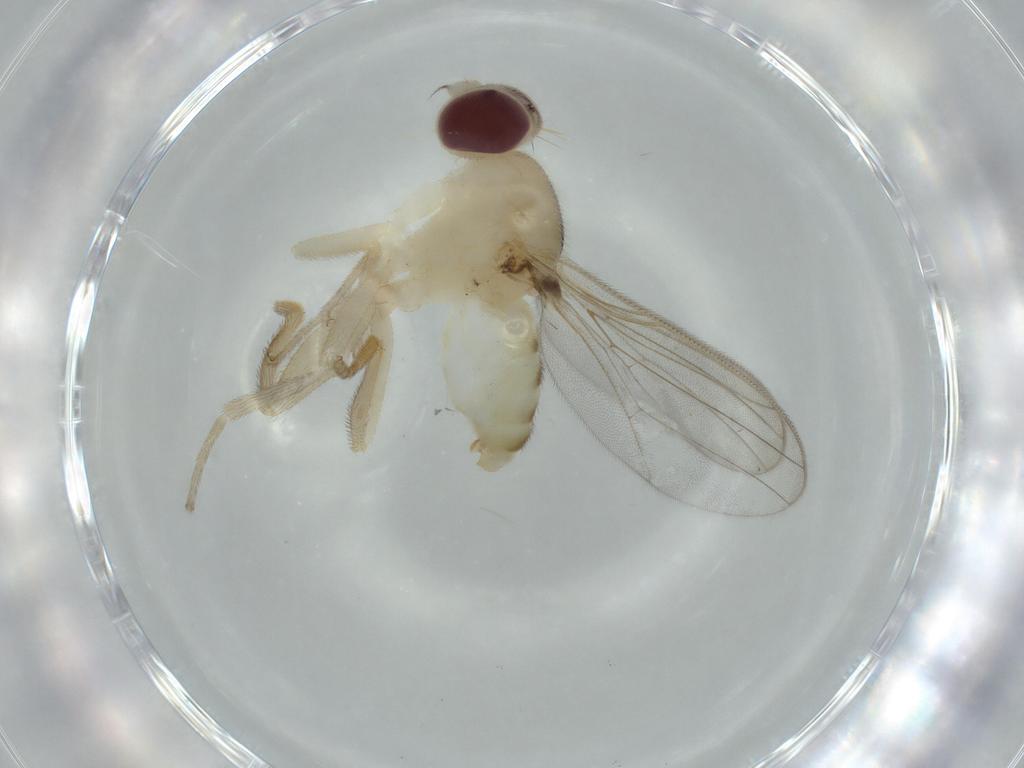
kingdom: Animalia
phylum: Arthropoda
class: Insecta
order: Diptera
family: Chloropidae
